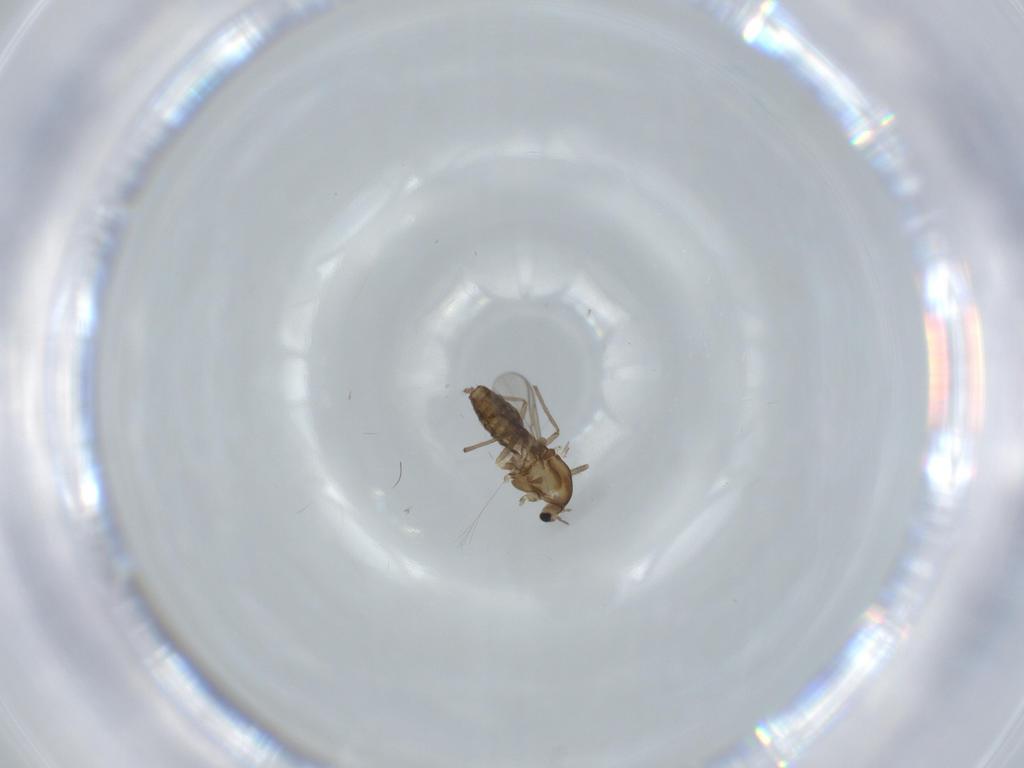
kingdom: Animalia
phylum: Arthropoda
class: Insecta
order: Diptera
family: Chironomidae
